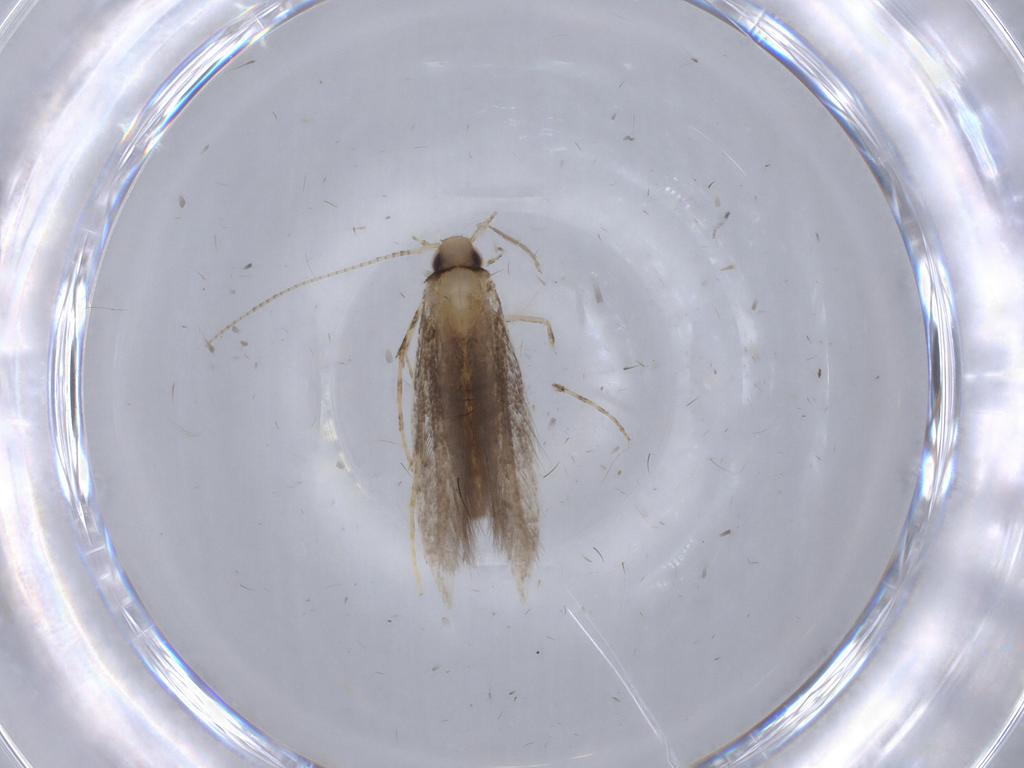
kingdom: Animalia
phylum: Arthropoda
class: Insecta
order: Lepidoptera
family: Gracillariidae
